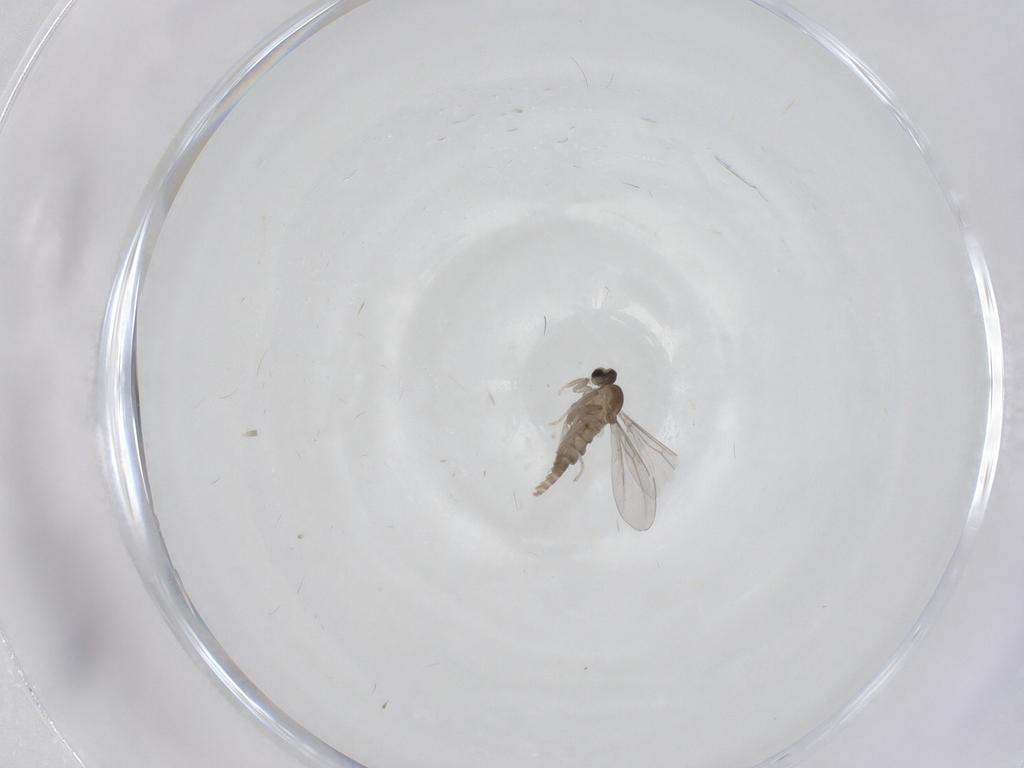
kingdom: Animalia
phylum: Arthropoda
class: Insecta
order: Diptera
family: Cecidomyiidae
